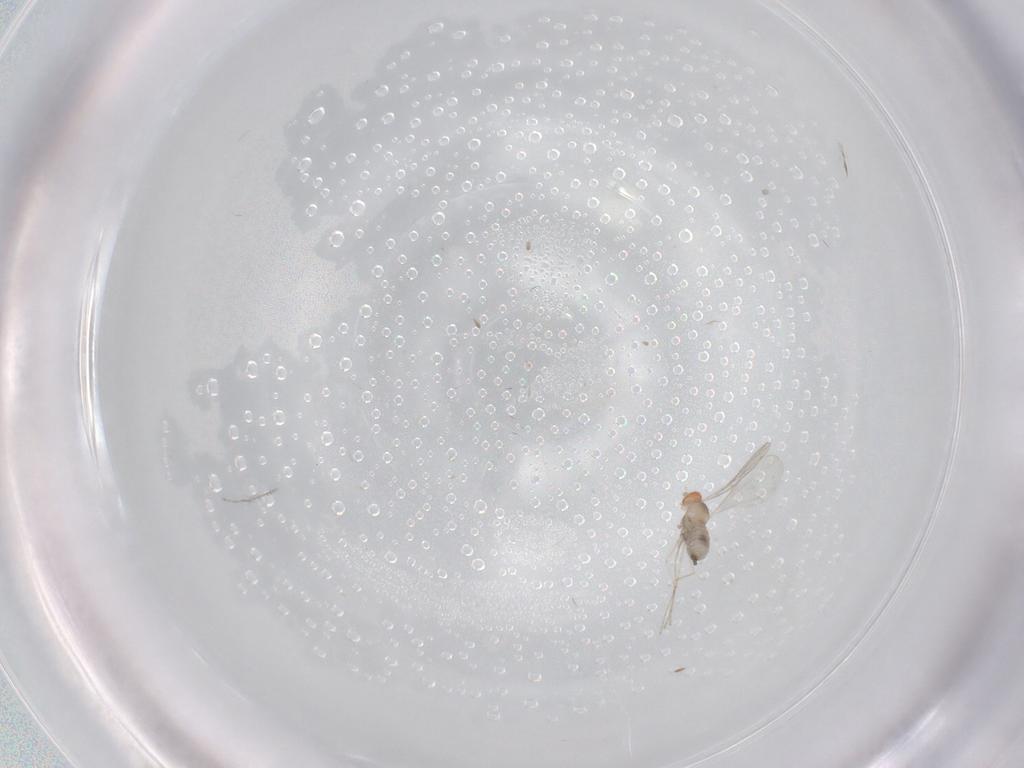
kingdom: Animalia
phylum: Arthropoda
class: Insecta
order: Diptera
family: Cecidomyiidae
